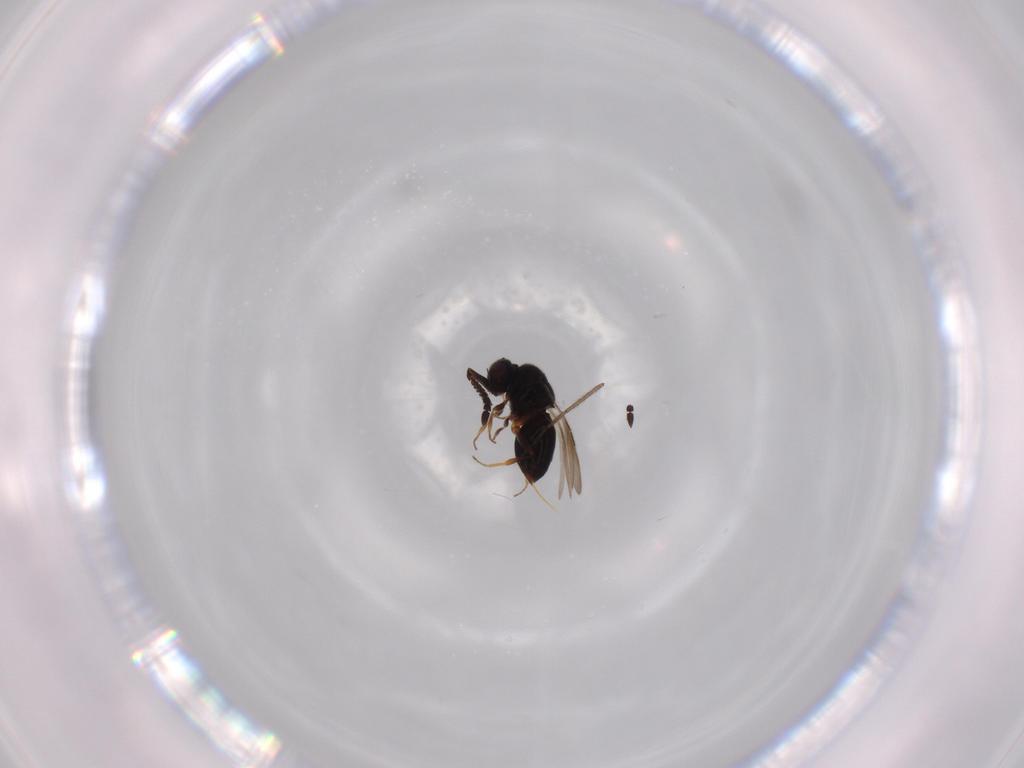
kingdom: Animalia
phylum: Arthropoda
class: Insecta
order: Hymenoptera
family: Ceraphronidae
